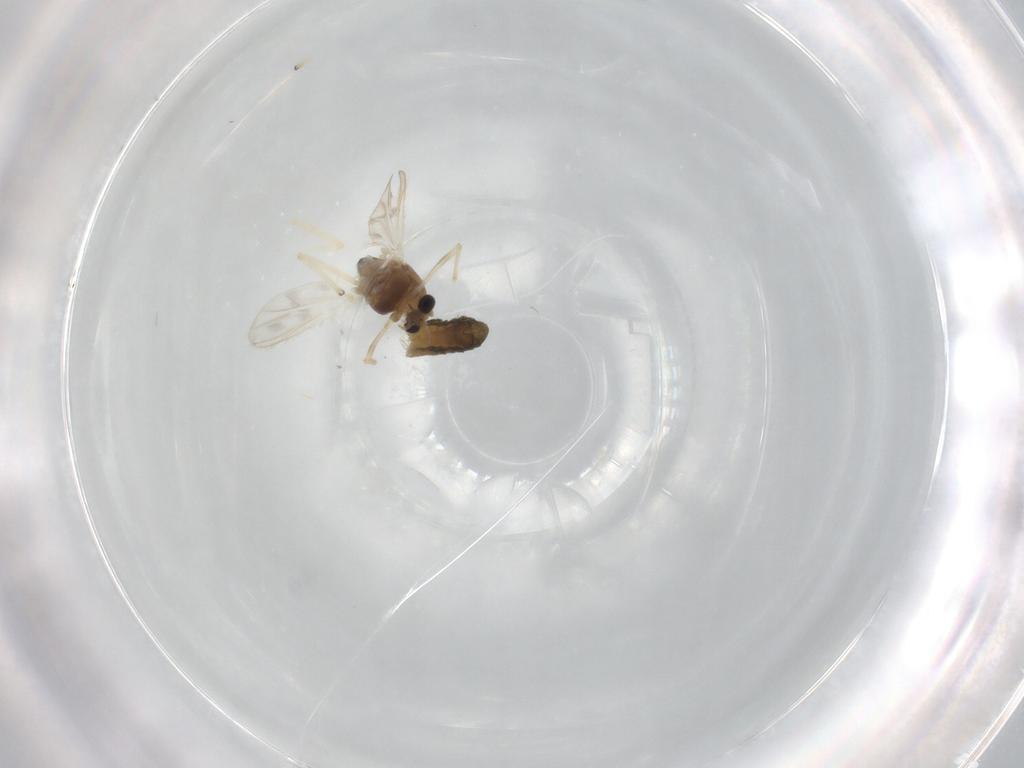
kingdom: Animalia
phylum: Arthropoda
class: Insecta
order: Diptera
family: Chironomidae
